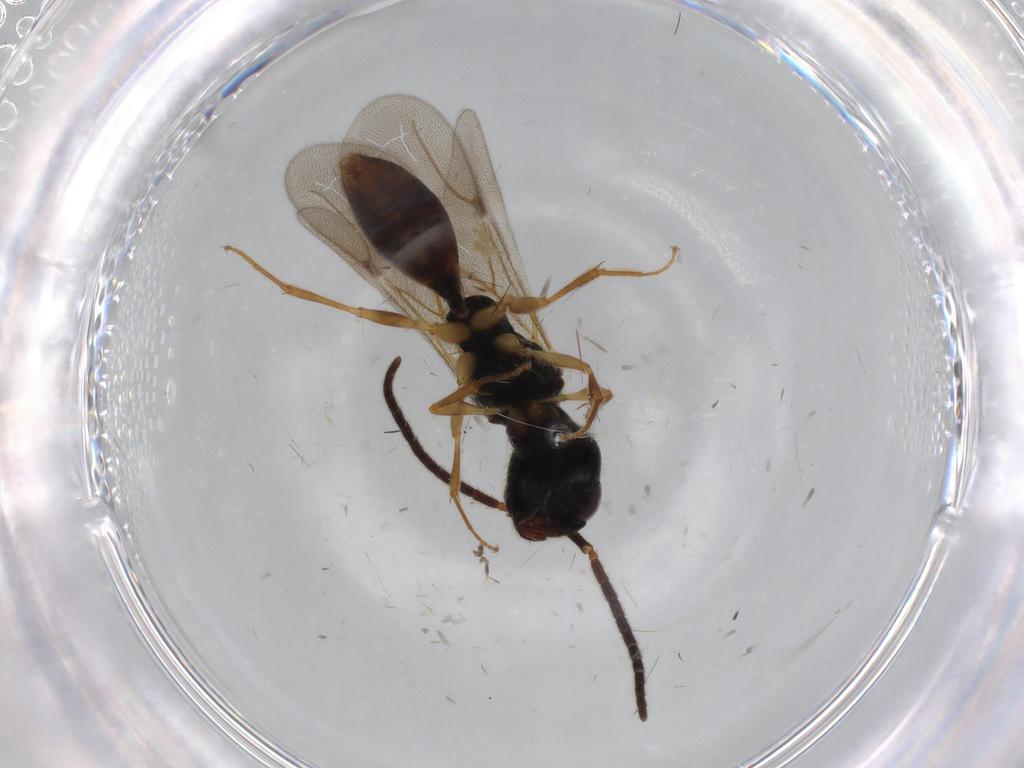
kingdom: Animalia
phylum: Arthropoda
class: Insecta
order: Hymenoptera
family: Bethylidae
